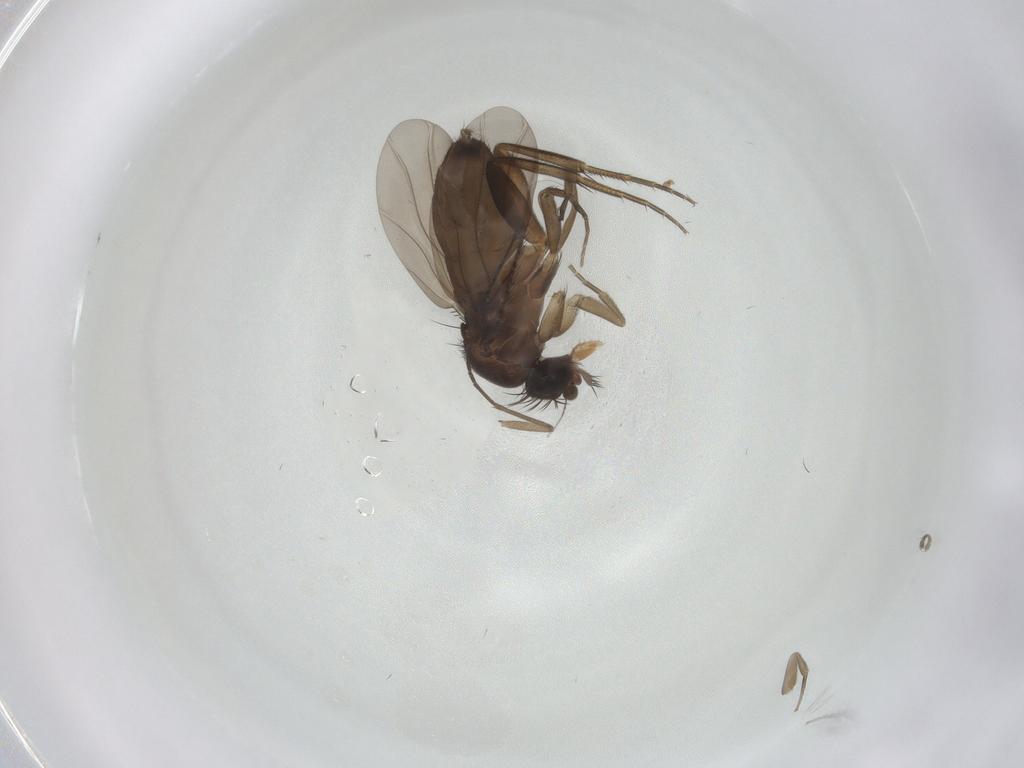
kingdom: Animalia
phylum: Arthropoda
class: Insecta
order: Diptera
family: Phoridae
